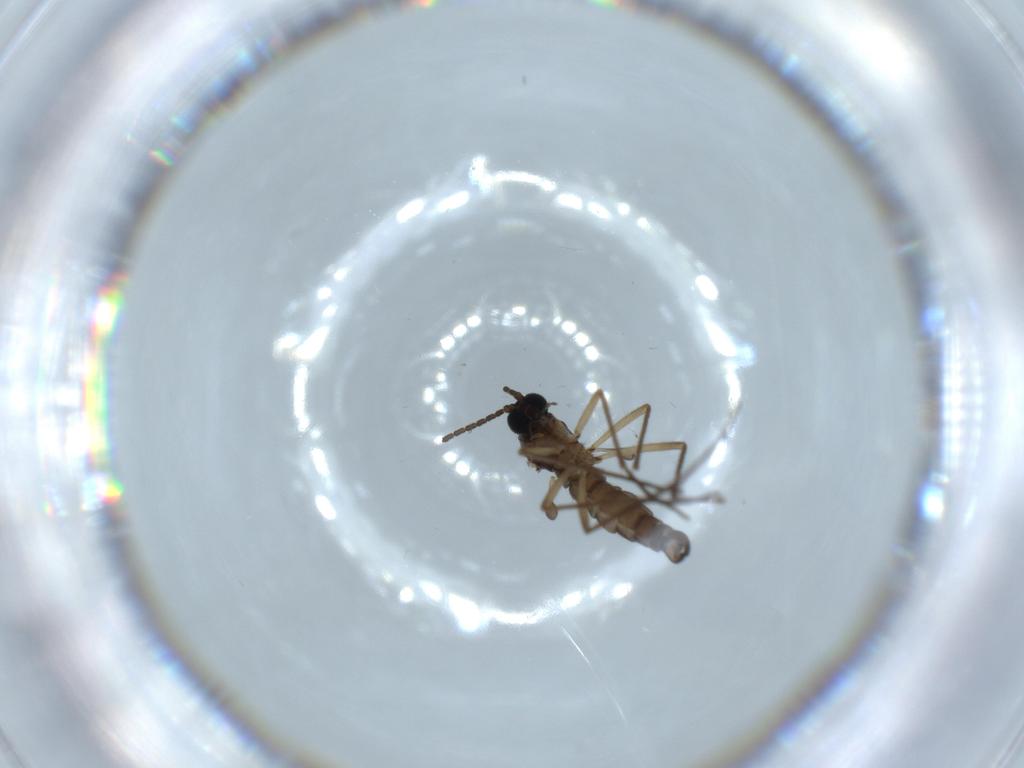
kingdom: Animalia
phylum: Arthropoda
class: Insecta
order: Diptera
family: Sciaridae
